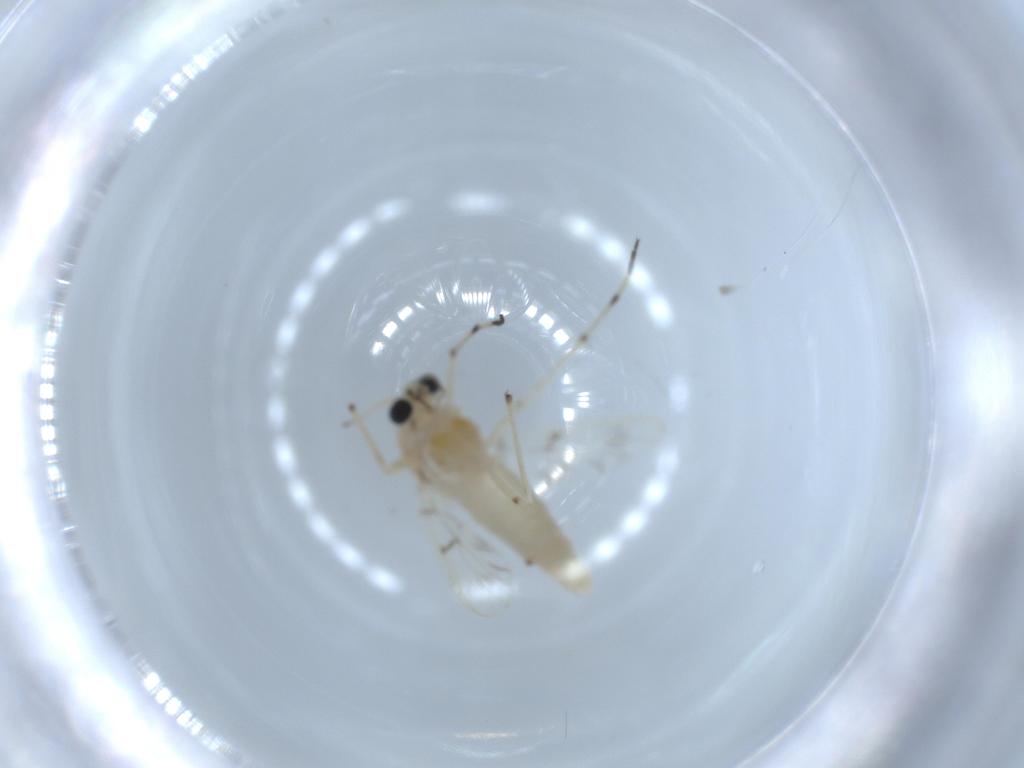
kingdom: Animalia
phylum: Arthropoda
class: Insecta
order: Diptera
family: Chironomidae
